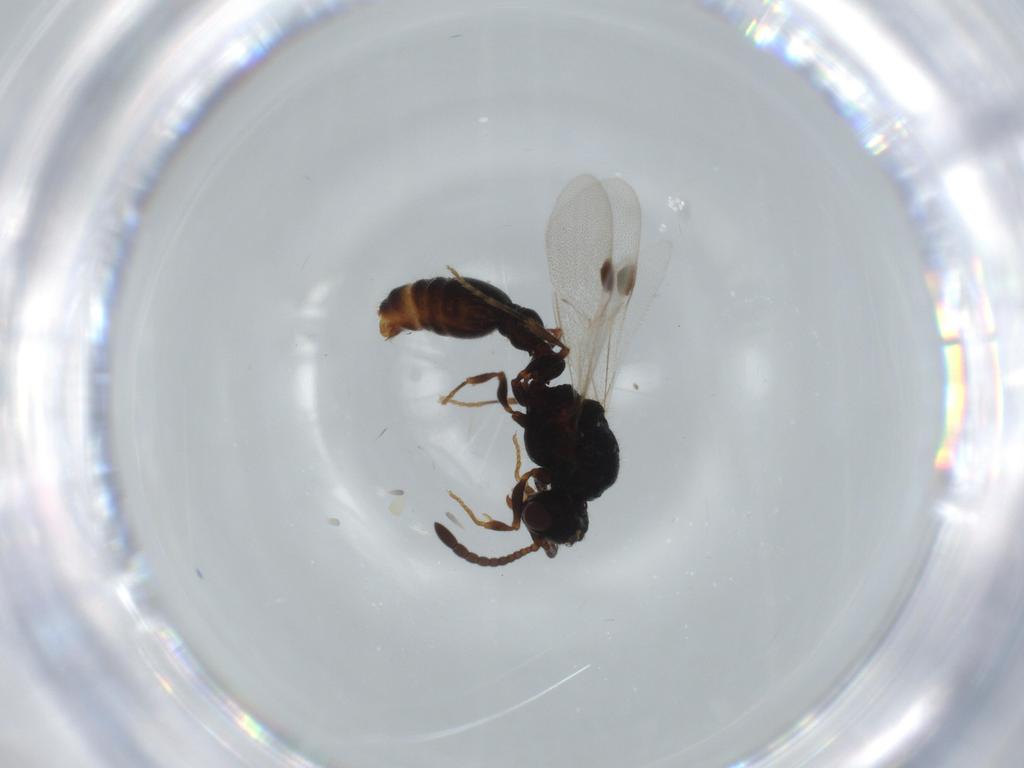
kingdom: Animalia
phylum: Arthropoda
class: Insecta
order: Hymenoptera
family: Formicidae
